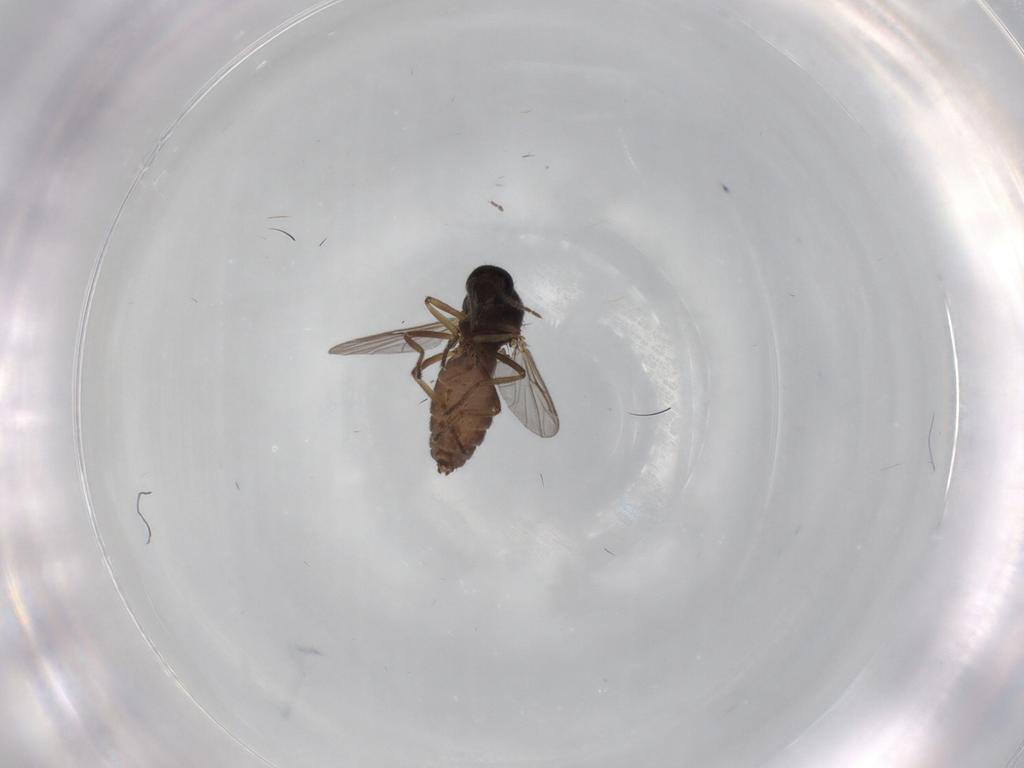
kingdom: Animalia
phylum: Arthropoda
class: Insecta
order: Diptera
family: Ceratopogonidae
